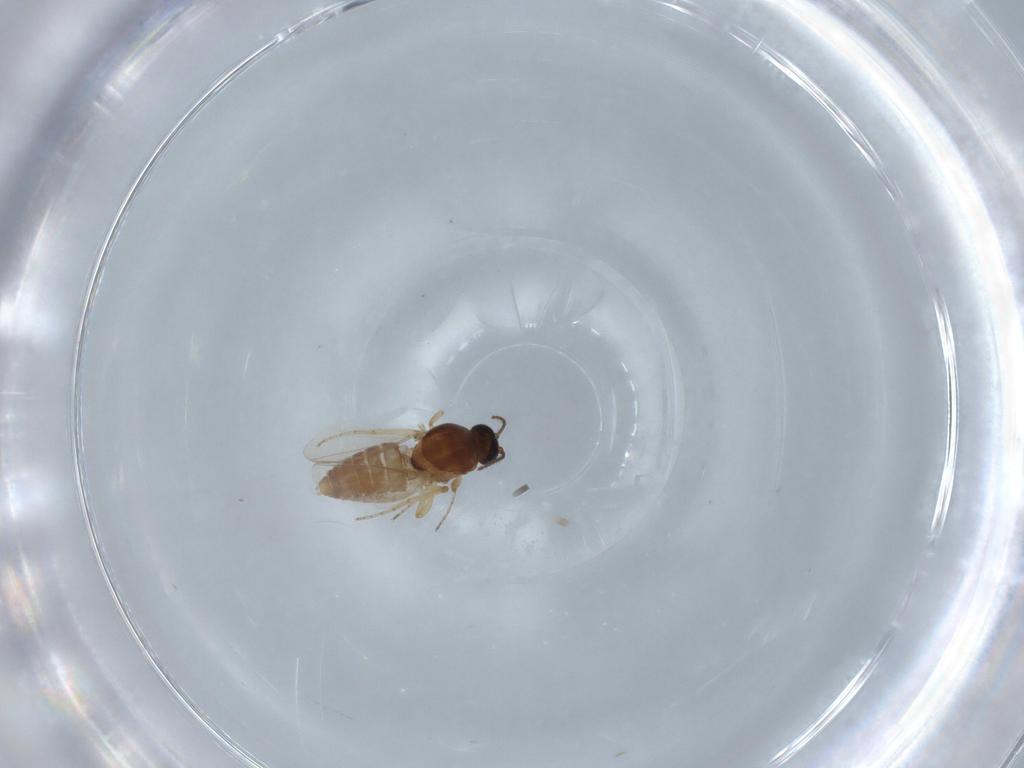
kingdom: Animalia
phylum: Arthropoda
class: Insecta
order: Diptera
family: Ceratopogonidae
